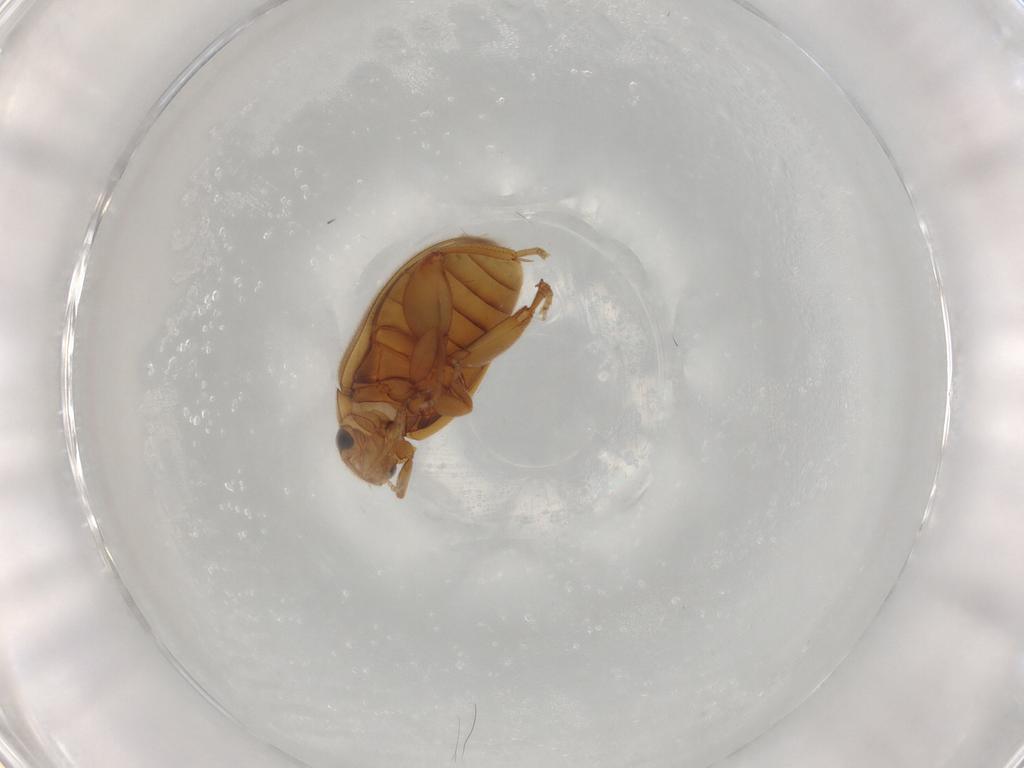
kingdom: Animalia
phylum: Arthropoda
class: Insecta
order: Coleoptera
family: Scirtidae
